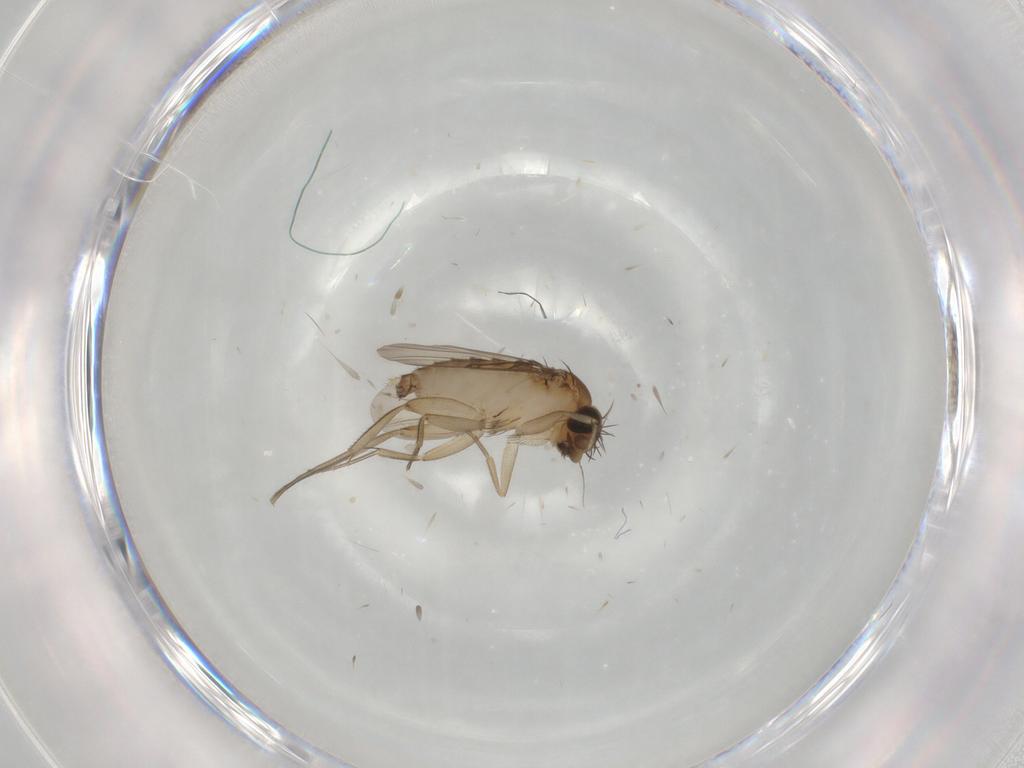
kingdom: Animalia
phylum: Arthropoda
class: Insecta
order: Diptera
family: Phoridae
